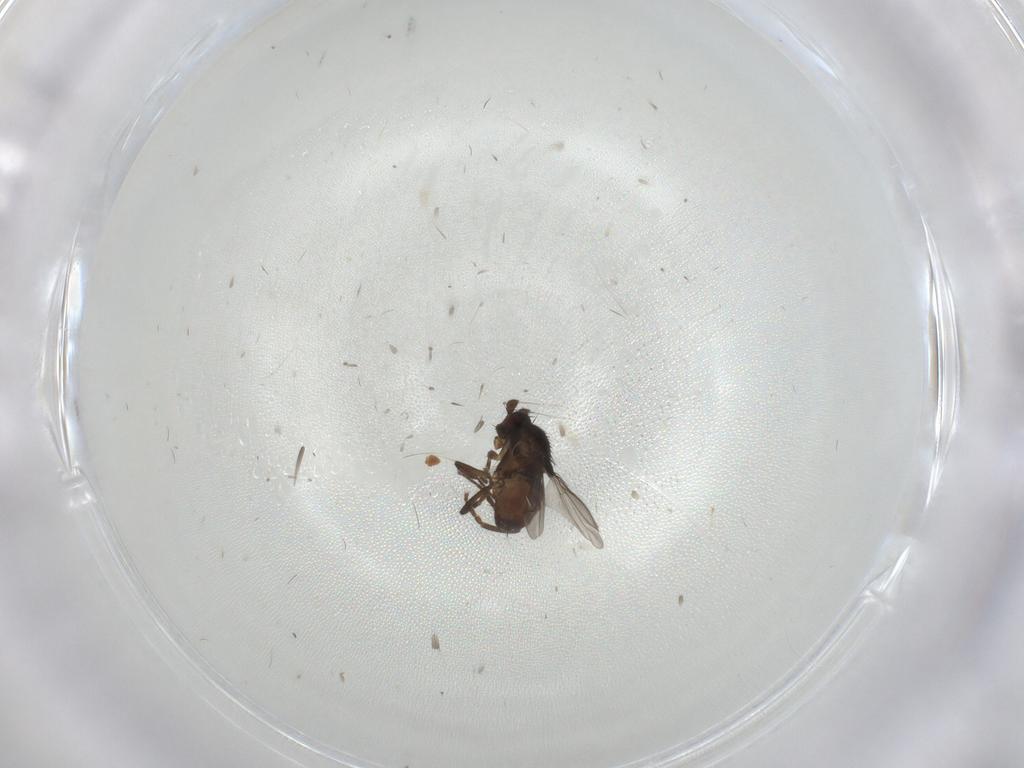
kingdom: Animalia
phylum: Arthropoda
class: Insecta
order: Diptera
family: Sphaeroceridae
